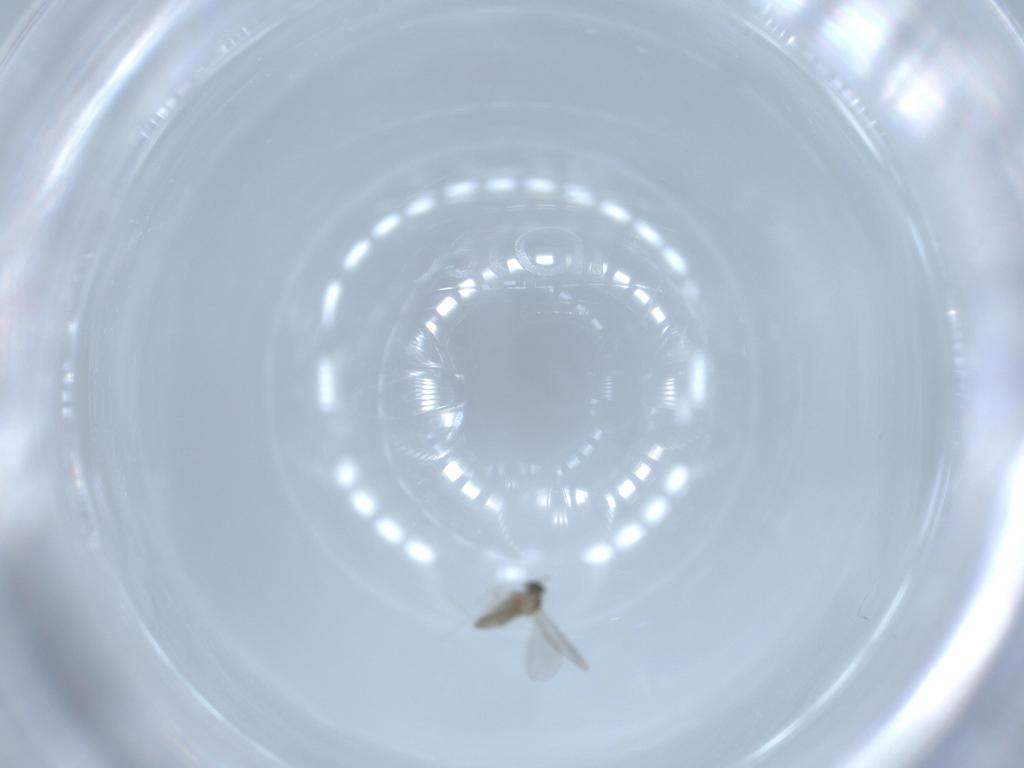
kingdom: Animalia
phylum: Arthropoda
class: Insecta
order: Diptera
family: Cecidomyiidae
